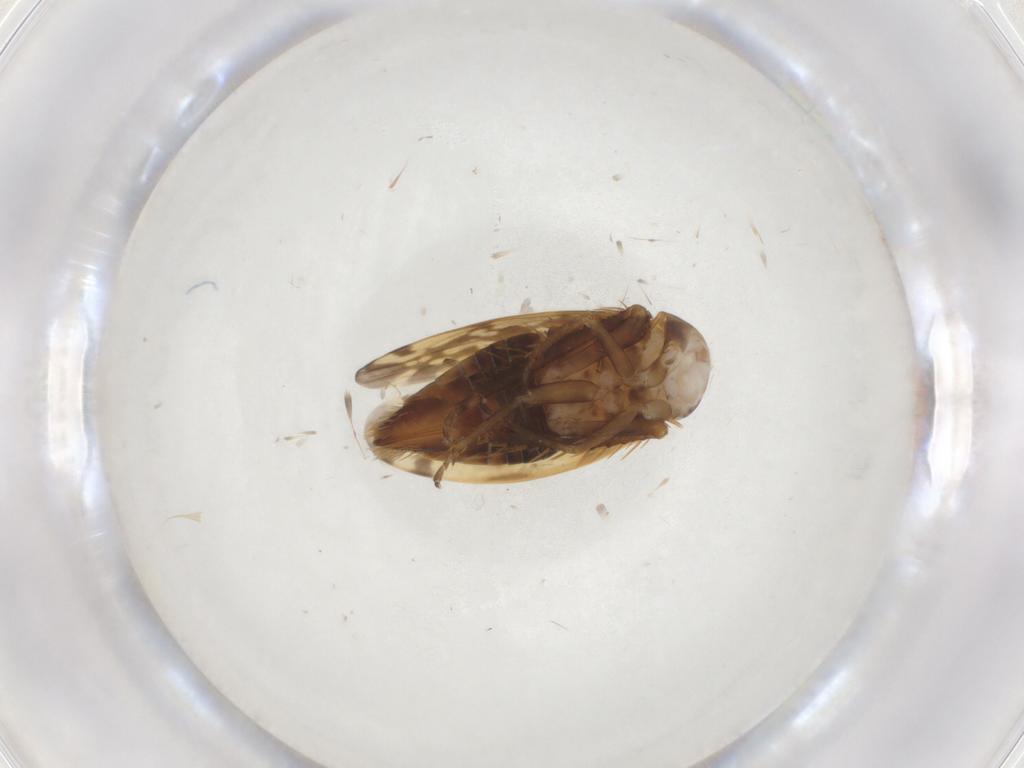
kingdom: Animalia
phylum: Arthropoda
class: Insecta
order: Hemiptera
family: Cicadellidae
